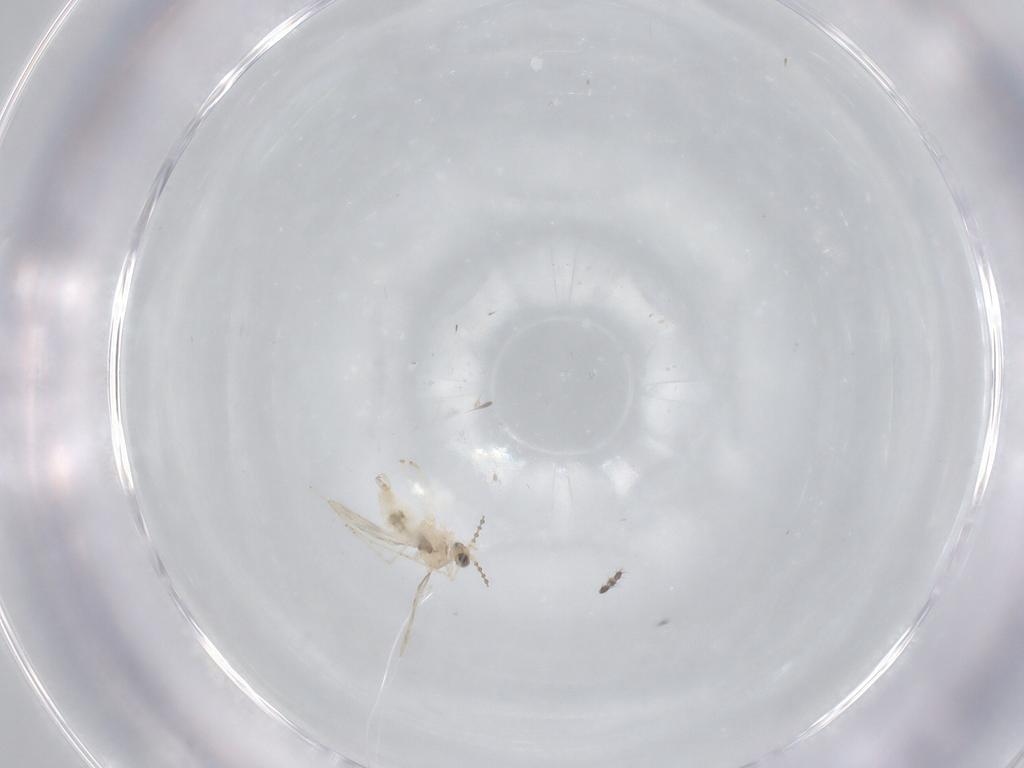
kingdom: Animalia
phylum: Arthropoda
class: Insecta
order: Diptera
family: Cecidomyiidae
